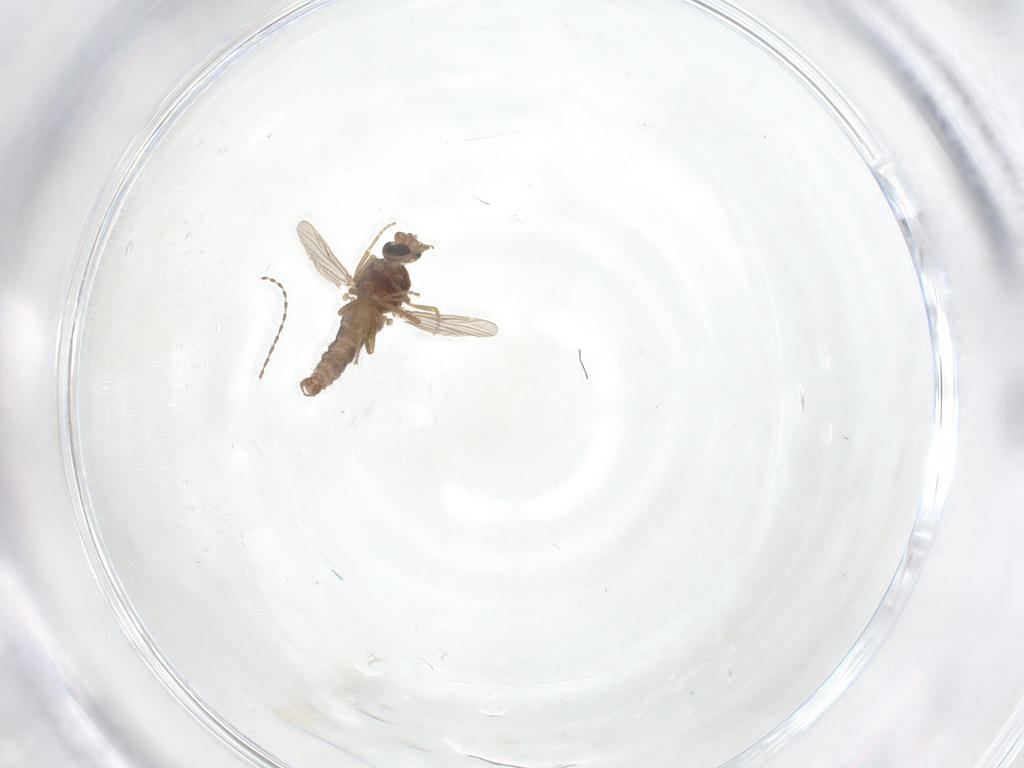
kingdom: Animalia
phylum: Arthropoda
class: Insecta
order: Diptera
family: Ceratopogonidae
